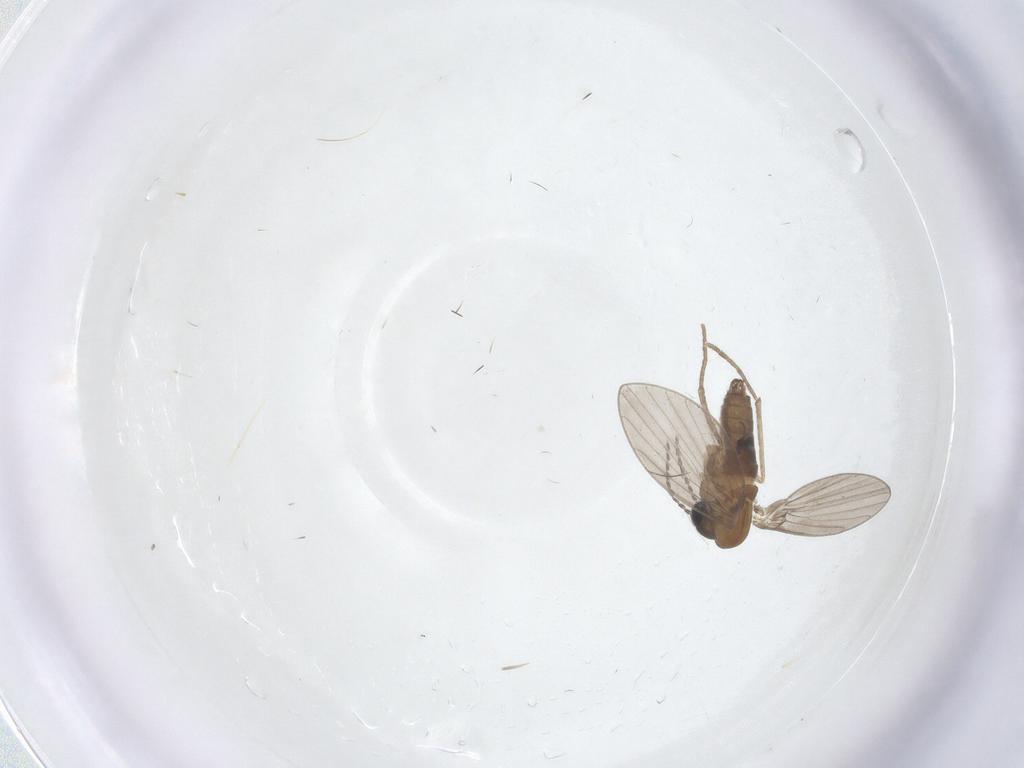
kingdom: Animalia
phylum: Arthropoda
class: Insecta
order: Diptera
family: Chironomidae
